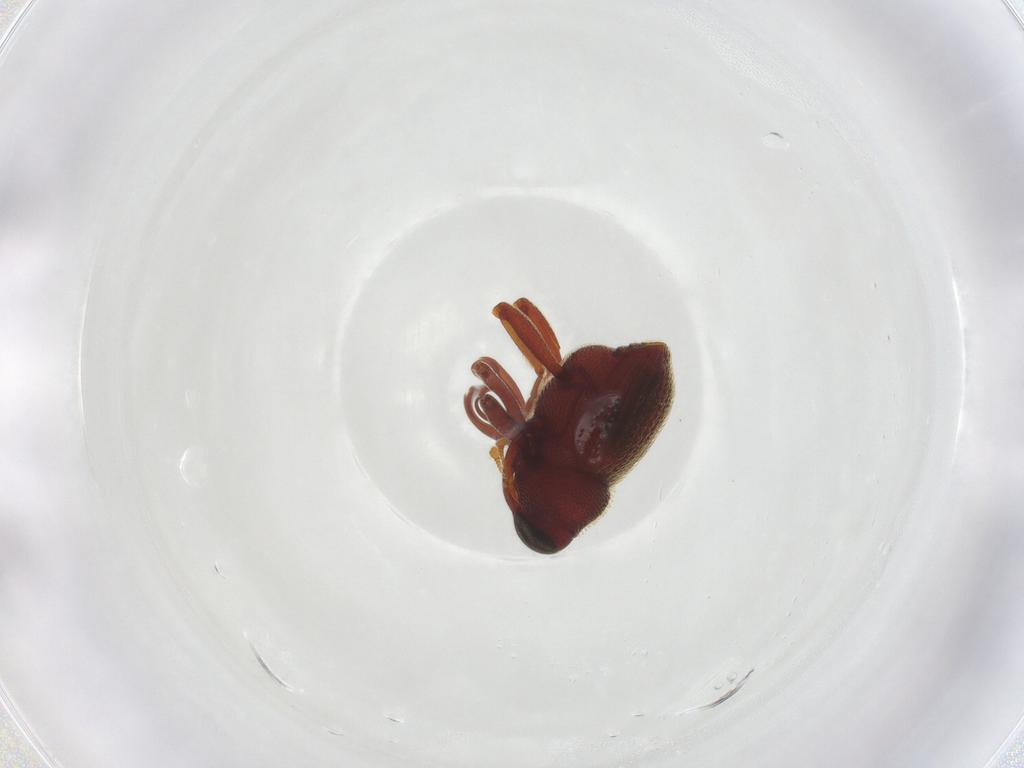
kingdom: Animalia
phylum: Arthropoda
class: Insecta
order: Coleoptera
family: Curculionidae
